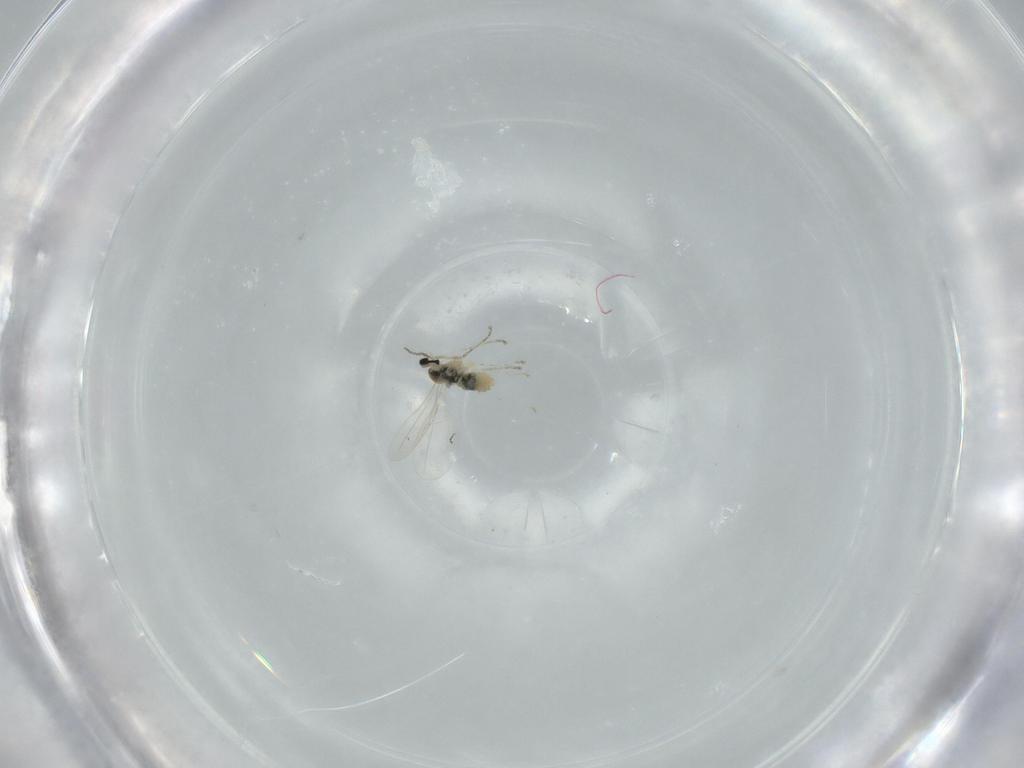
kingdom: Animalia
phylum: Arthropoda
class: Insecta
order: Diptera
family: Cecidomyiidae
